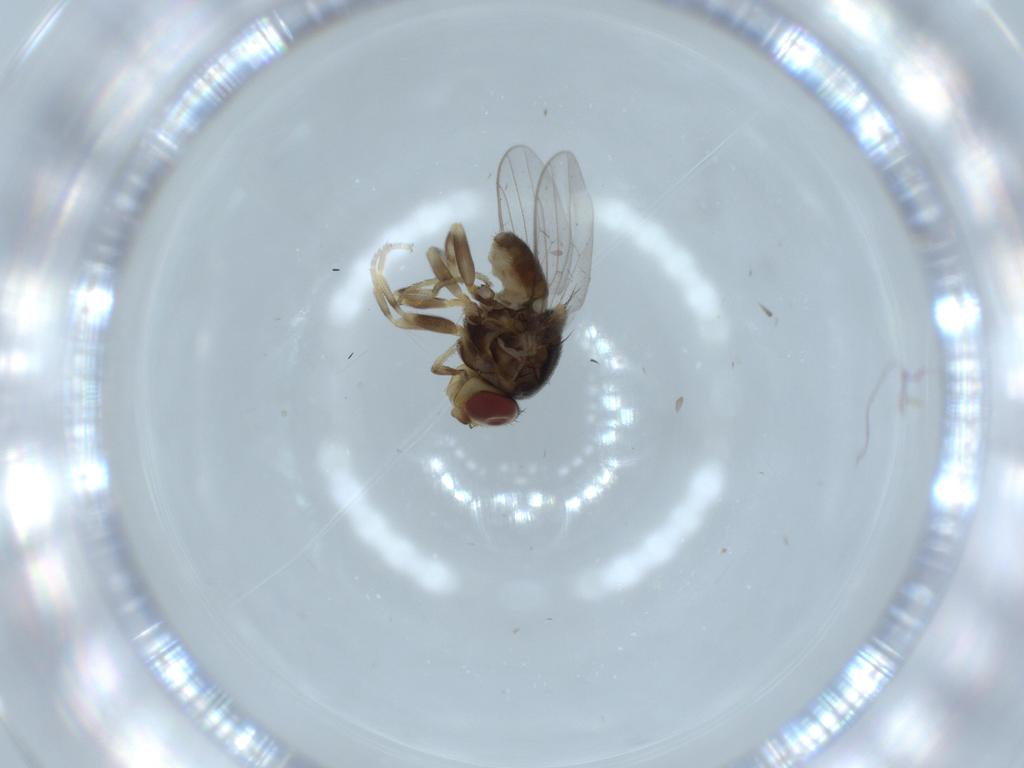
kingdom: Animalia
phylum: Arthropoda
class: Insecta
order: Diptera
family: Chloropidae
